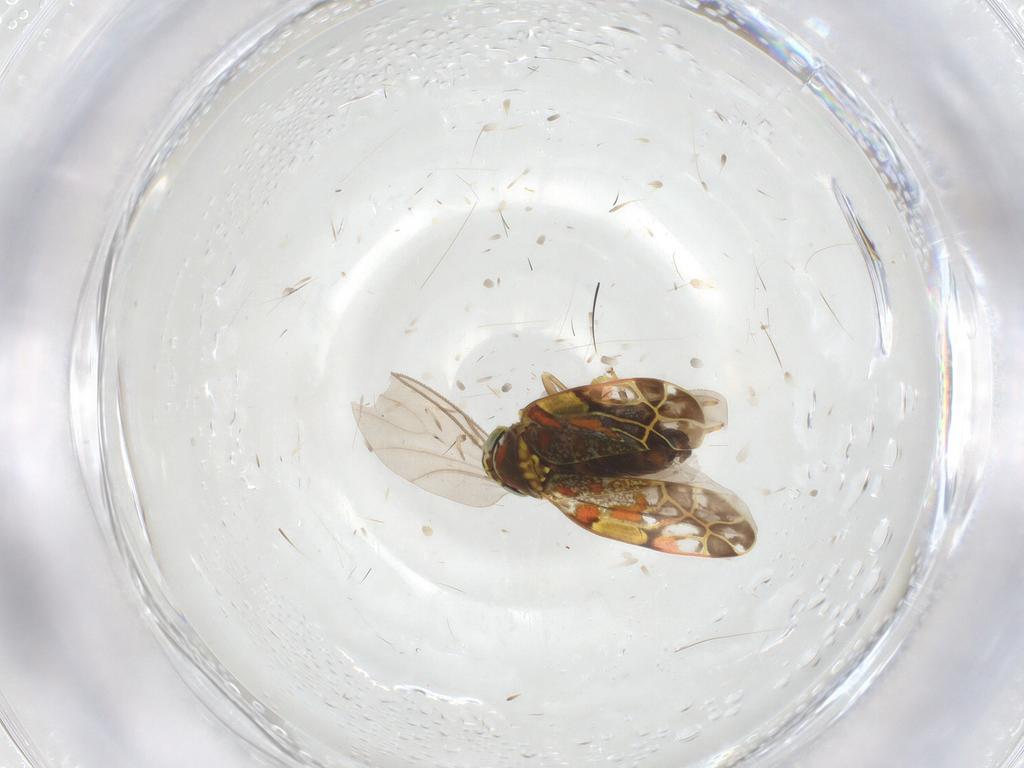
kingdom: Animalia
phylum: Arthropoda
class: Insecta
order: Hemiptera
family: Cicadellidae
